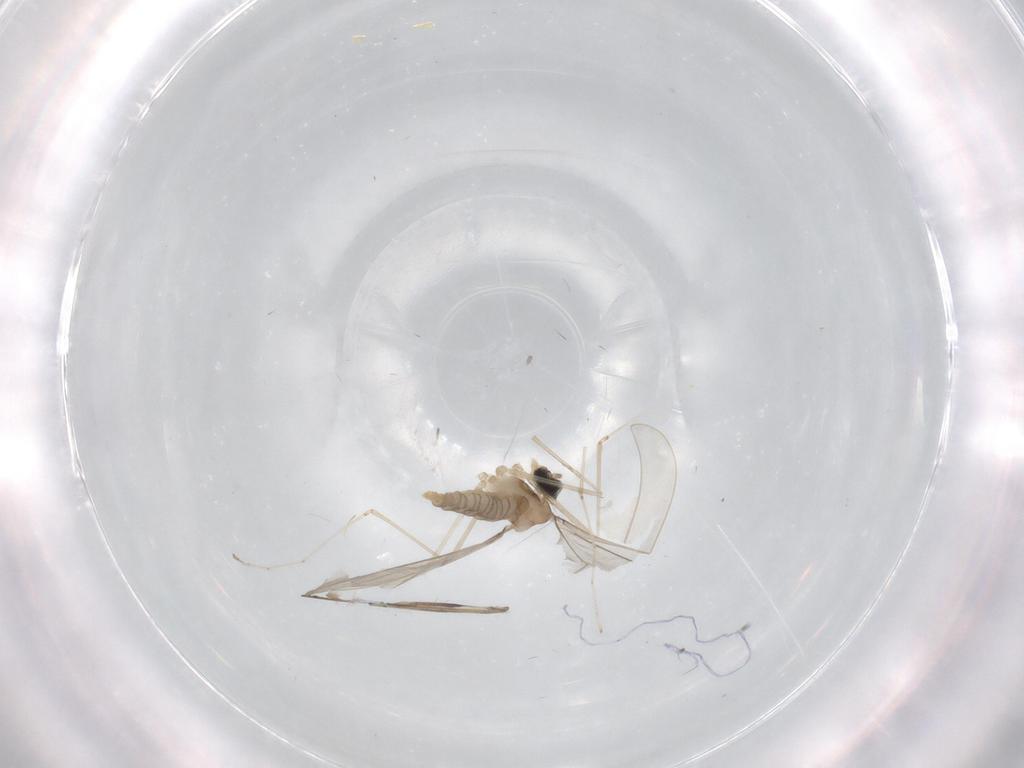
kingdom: Animalia
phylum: Arthropoda
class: Insecta
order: Diptera
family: Cecidomyiidae
